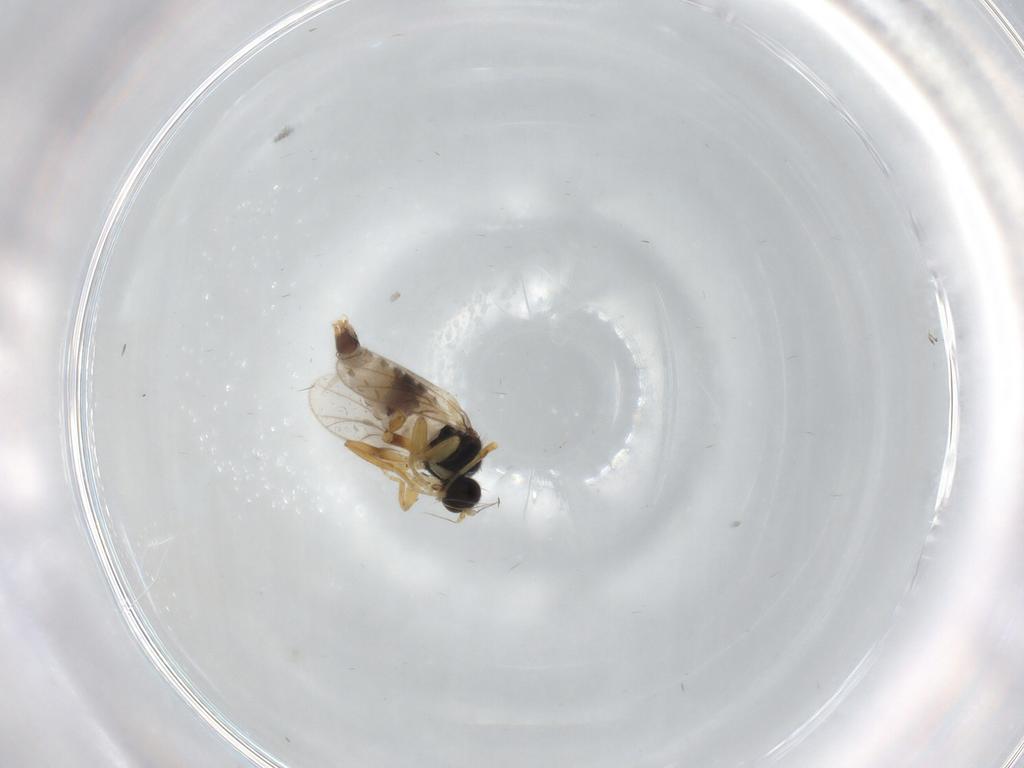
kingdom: Animalia
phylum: Arthropoda
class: Insecta
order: Diptera
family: Hybotidae
